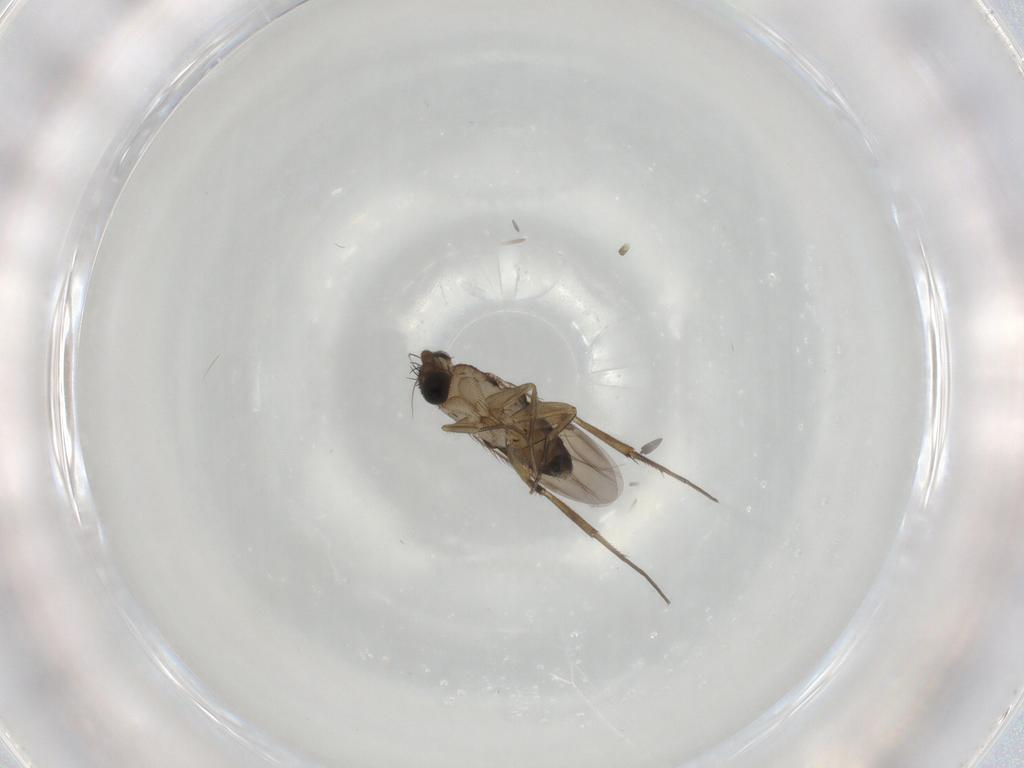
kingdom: Animalia
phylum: Arthropoda
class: Insecta
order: Diptera
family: Phoridae
